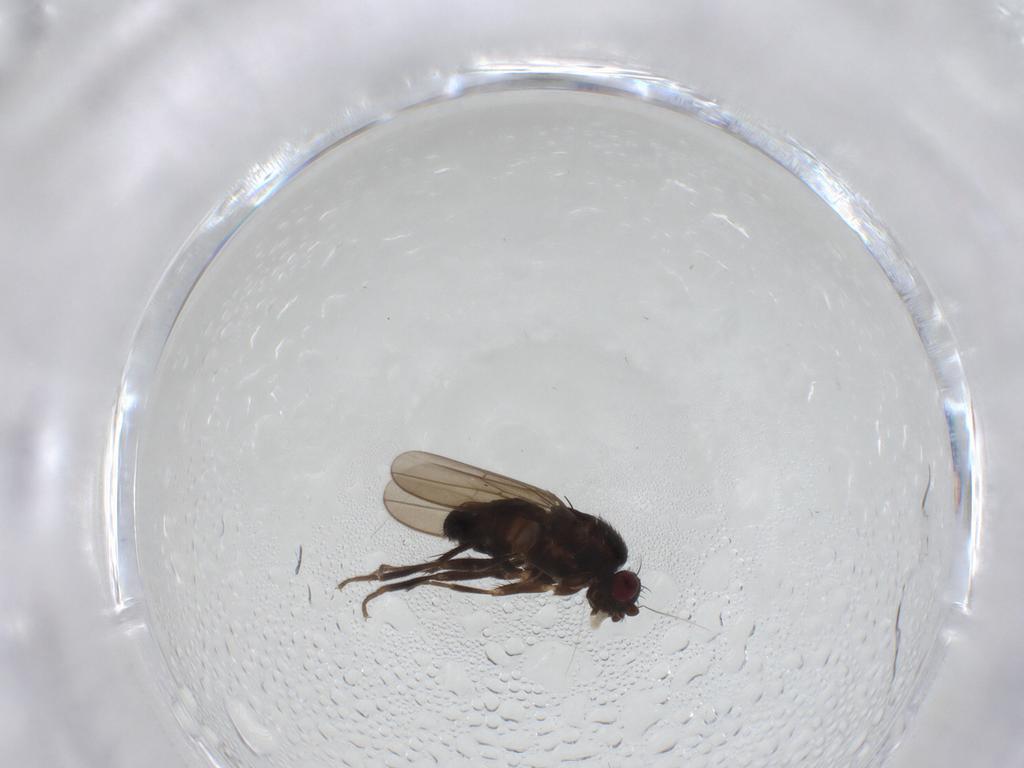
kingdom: Animalia
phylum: Arthropoda
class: Insecta
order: Diptera
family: Sphaeroceridae
